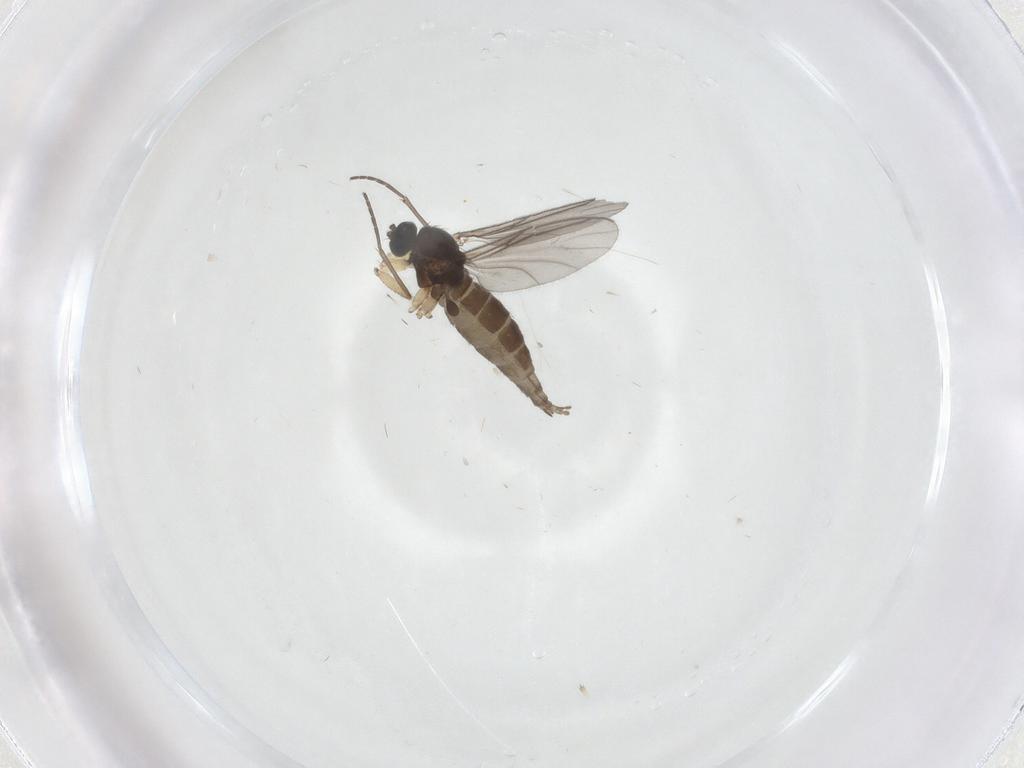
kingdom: Animalia
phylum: Arthropoda
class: Insecta
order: Diptera
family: Sciaridae
